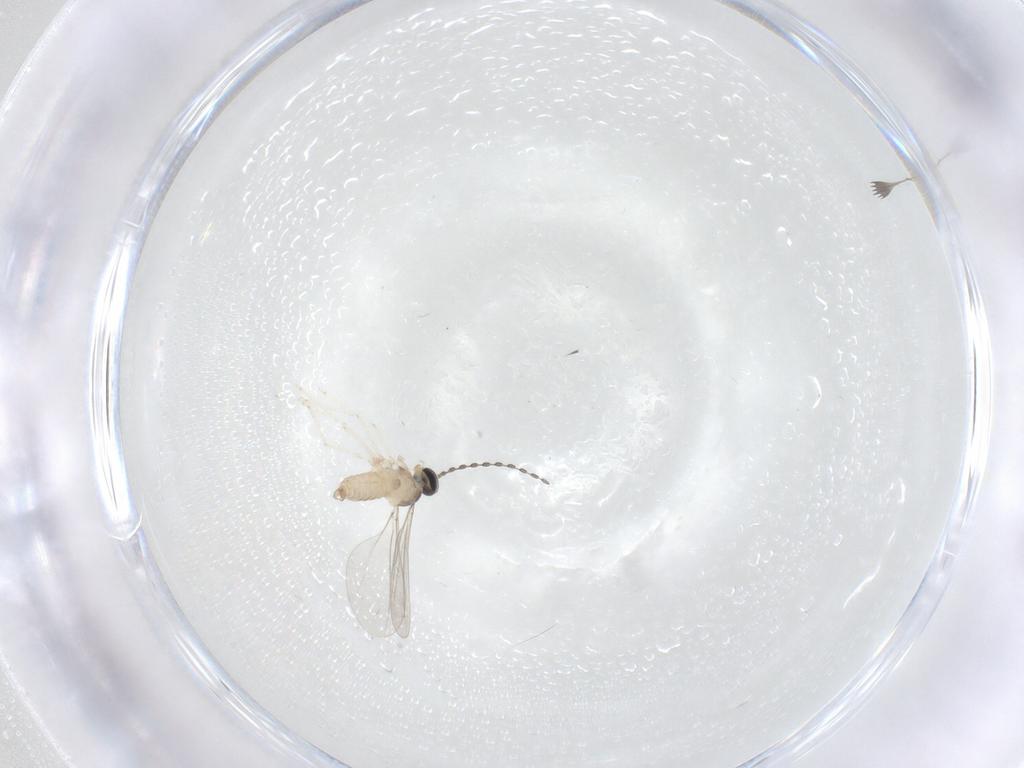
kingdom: Animalia
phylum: Arthropoda
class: Insecta
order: Diptera
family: Cecidomyiidae
